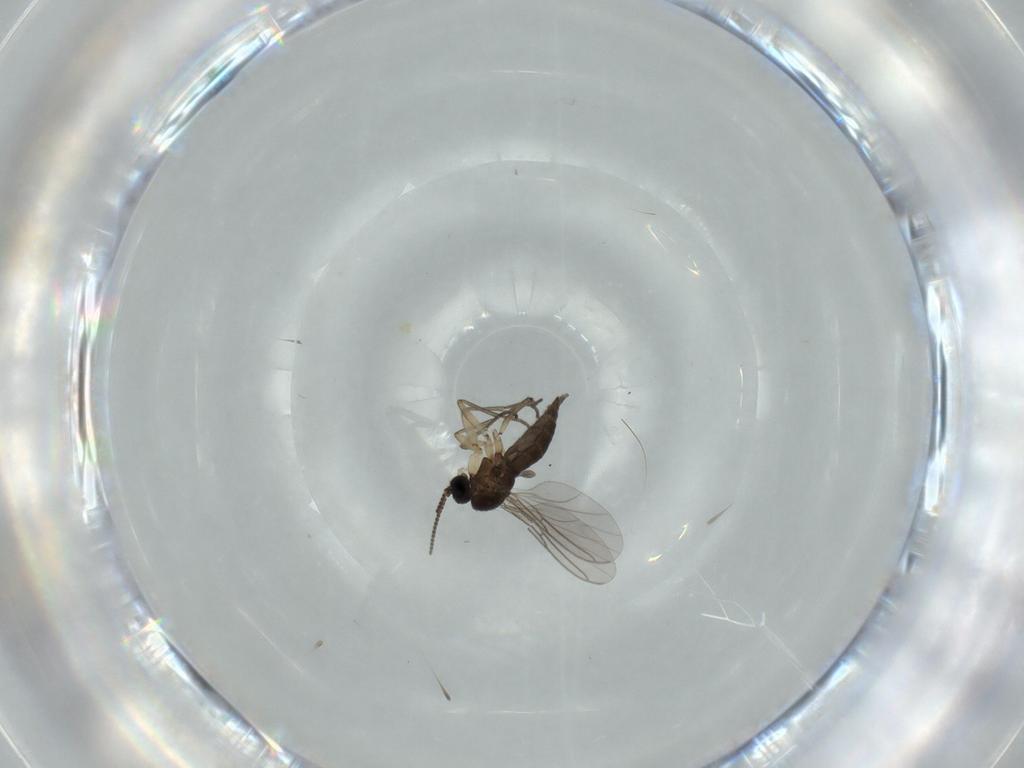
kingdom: Animalia
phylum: Arthropoda
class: Insecta
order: Diptera
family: Sciaridae
